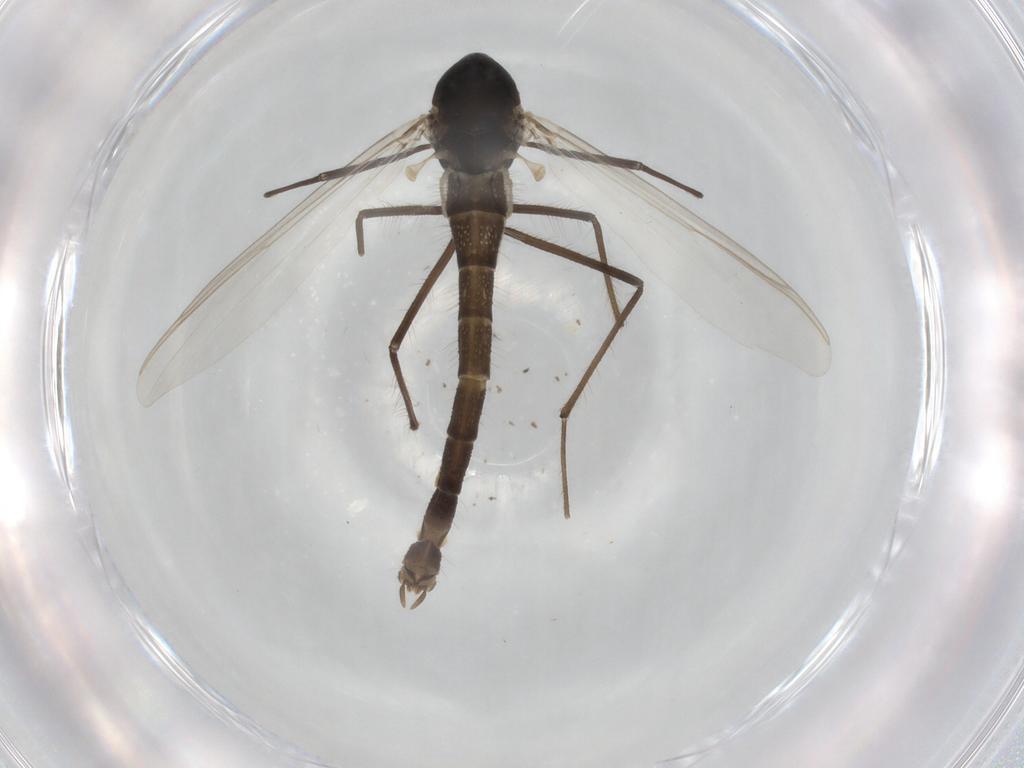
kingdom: Animalia
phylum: Arthropoda
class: Insecta
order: Diptera
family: Chironomidae
